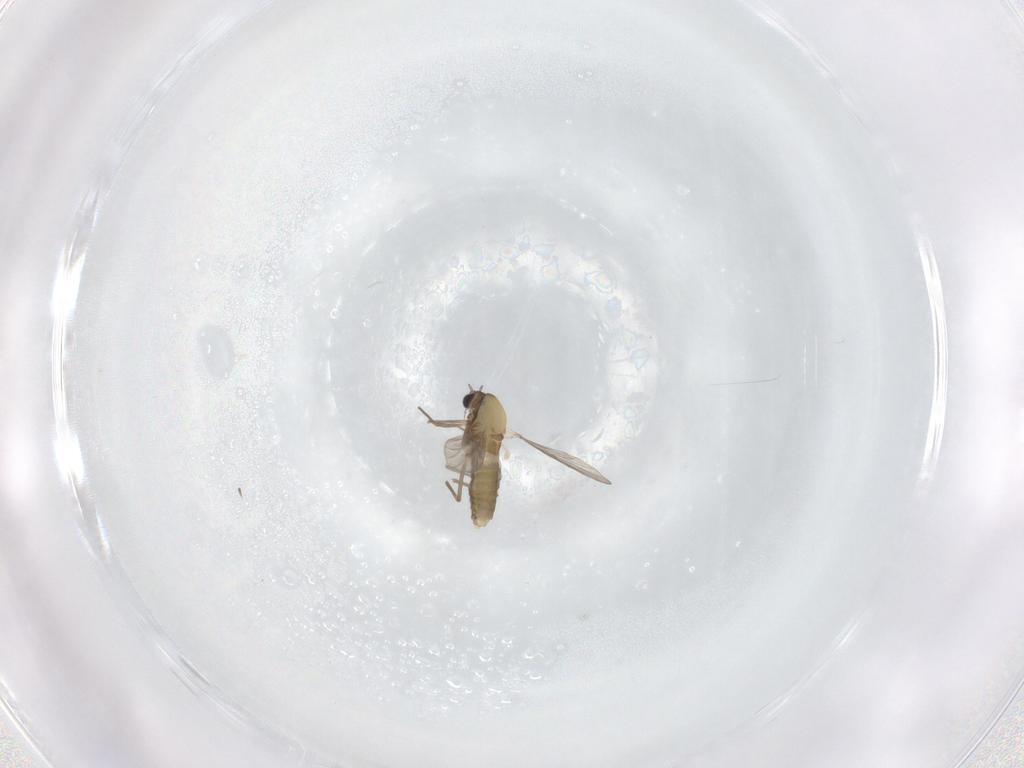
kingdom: Animalia
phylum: Arthropoda
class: Insecta
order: Diptera
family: Chironomidae
